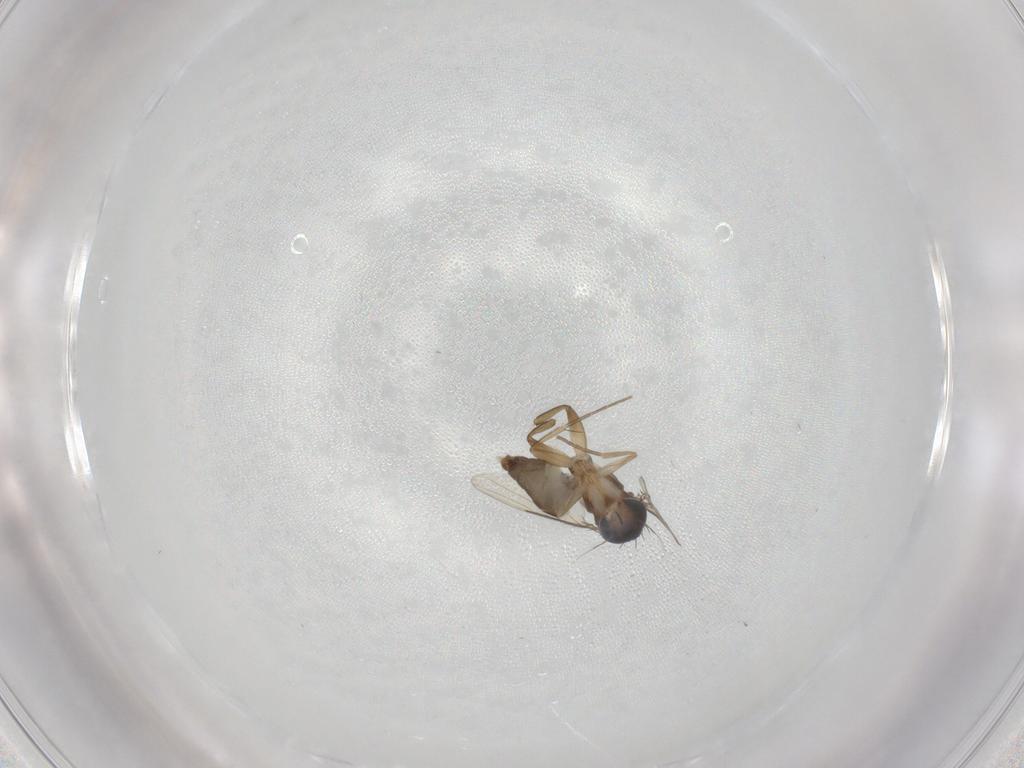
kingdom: Animalia
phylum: Arthropoda
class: Insecta
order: Diptera
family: Phoridae
